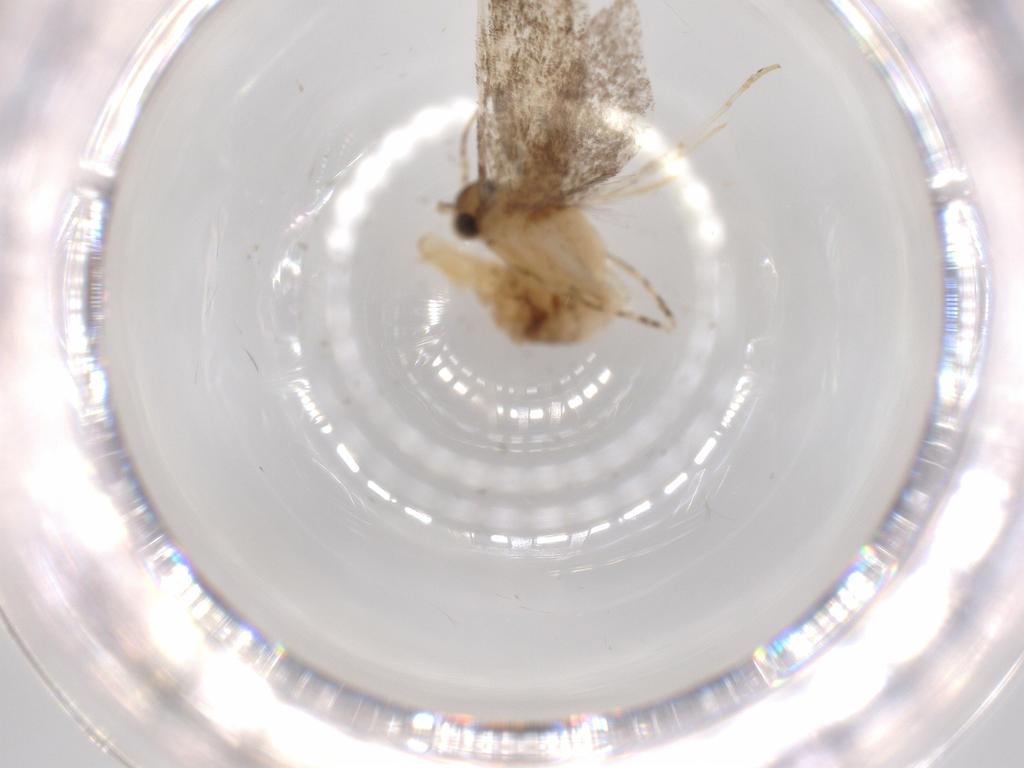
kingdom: Animalia
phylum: Arthropoda
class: Insecta
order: Lepidoptera
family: Tineidae
